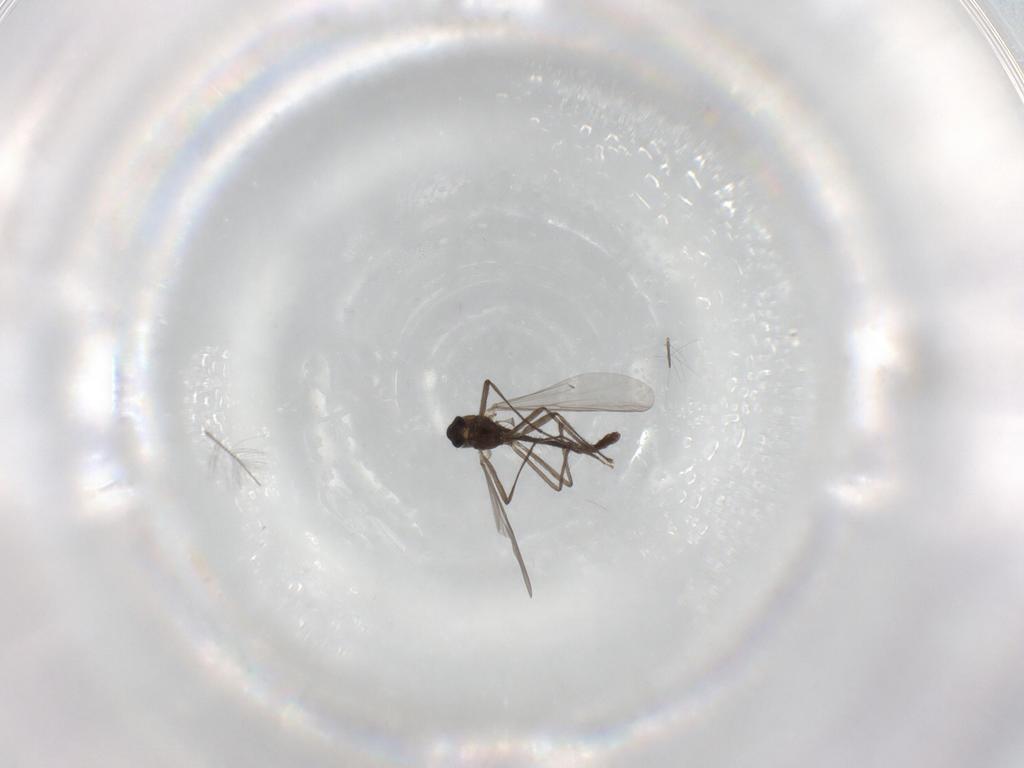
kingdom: Animalia
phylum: Arthropoda
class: Insecta
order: Diptera
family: Chironomidae
